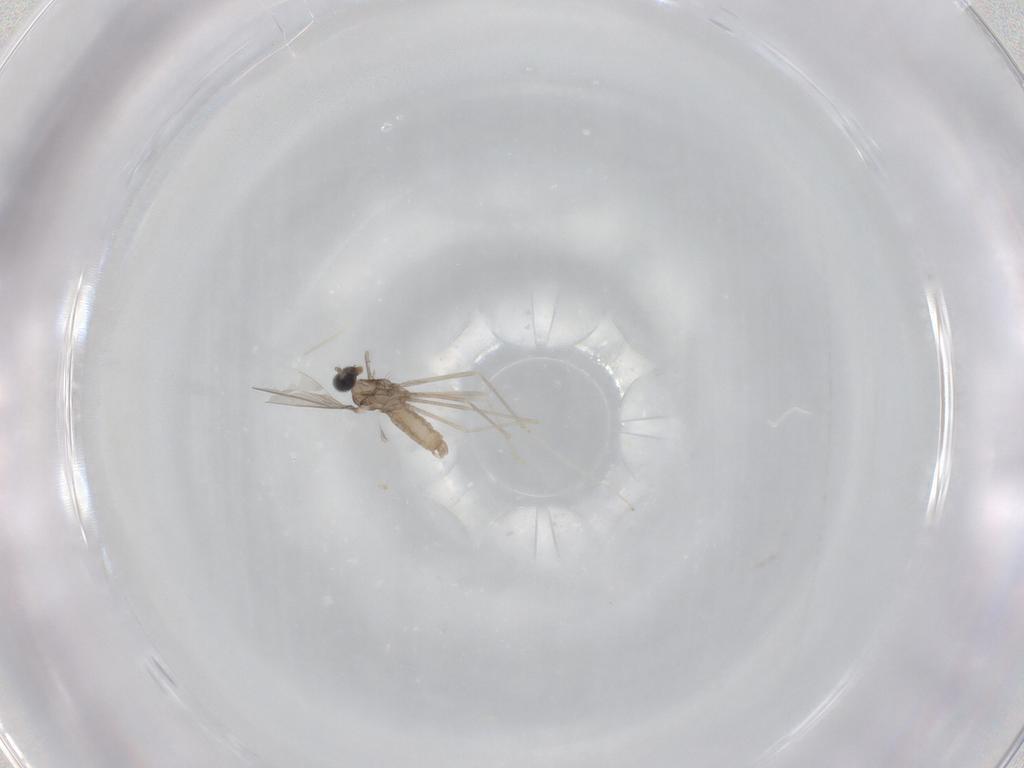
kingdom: Animalia
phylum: Arthropoda
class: Insecta
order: Diptera
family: Cecidomyiidae
